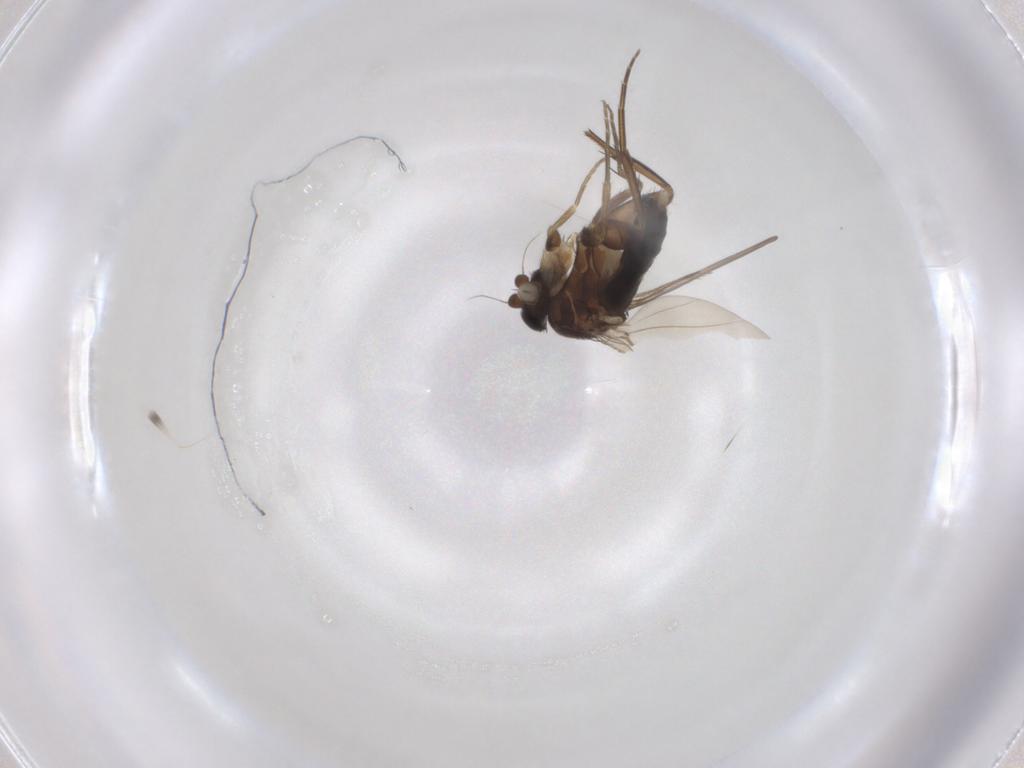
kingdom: Animalia
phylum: Arthropoda
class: Insecta
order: Diptera
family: Phoridae
